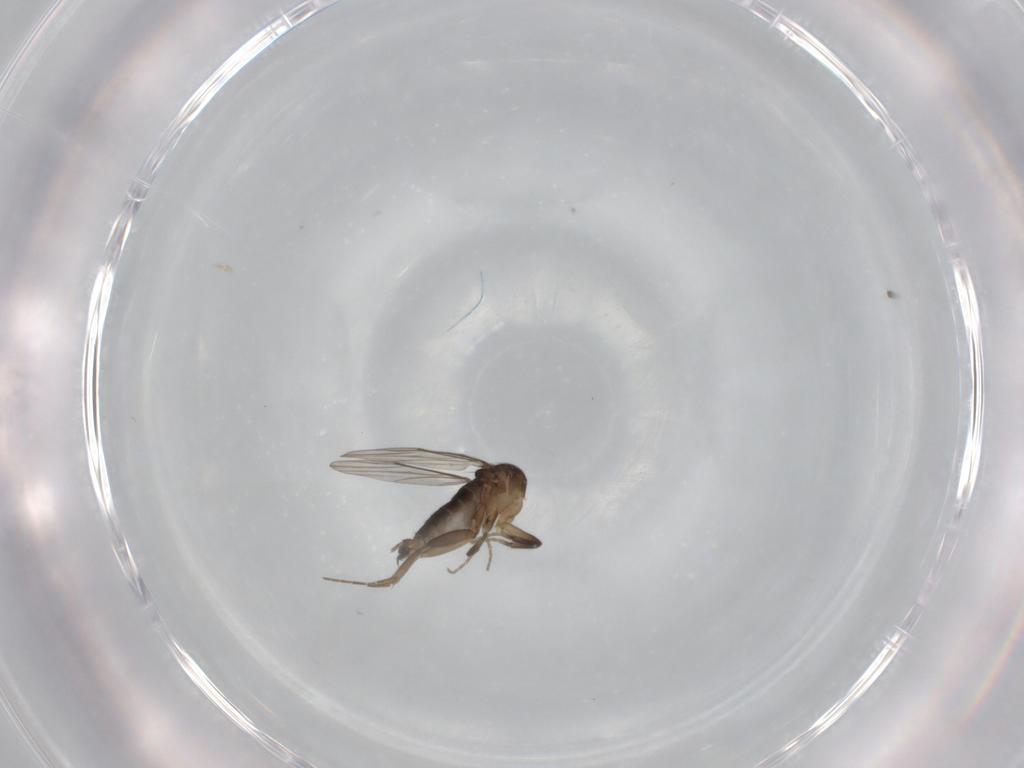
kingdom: Animalia
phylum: Arthropoda
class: Insecta
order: Diptera
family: Phoridae
